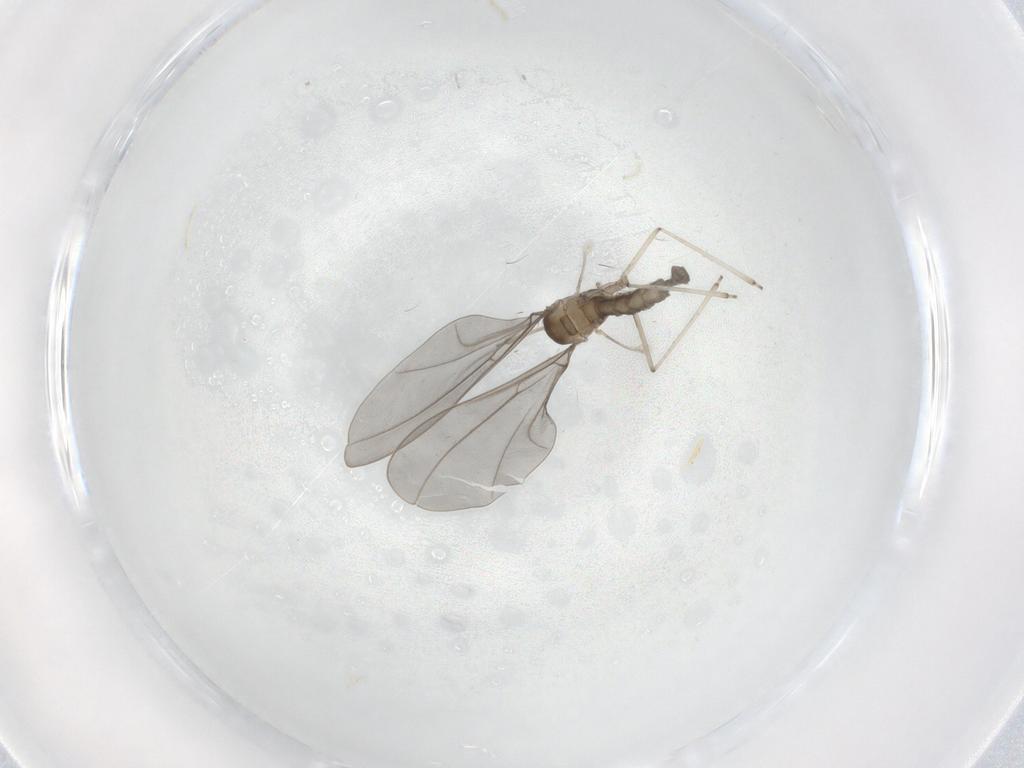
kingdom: Animalia
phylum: Arthropoda
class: Insecta
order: Diptera
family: Cecidomyiidae
